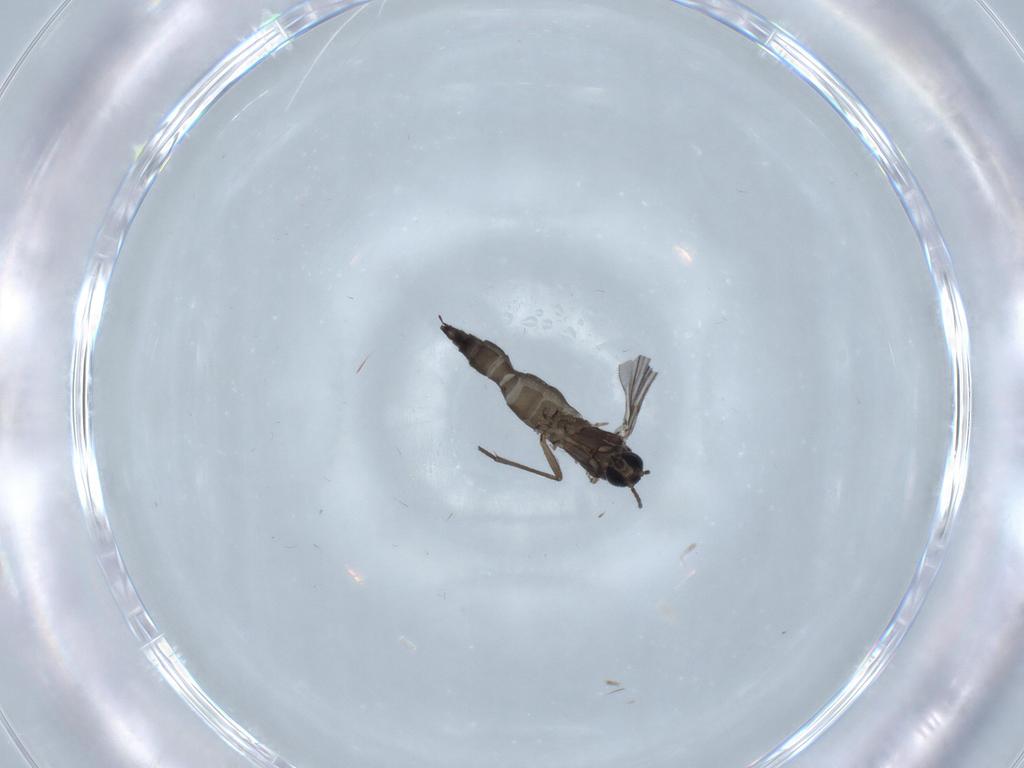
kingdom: Animalia
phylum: Arthropoda
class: Insecta
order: Diptera
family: Sciaridae
